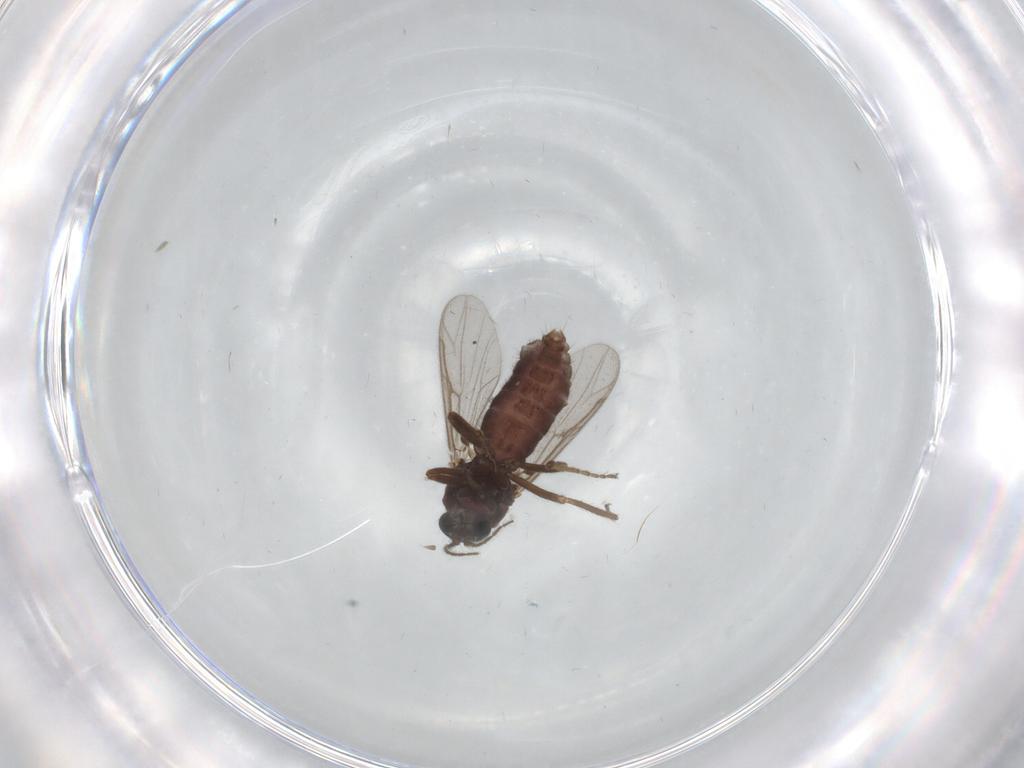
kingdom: Animalia
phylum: Arthropoda
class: Insecta
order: Diptera
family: Ceratopogonidae
